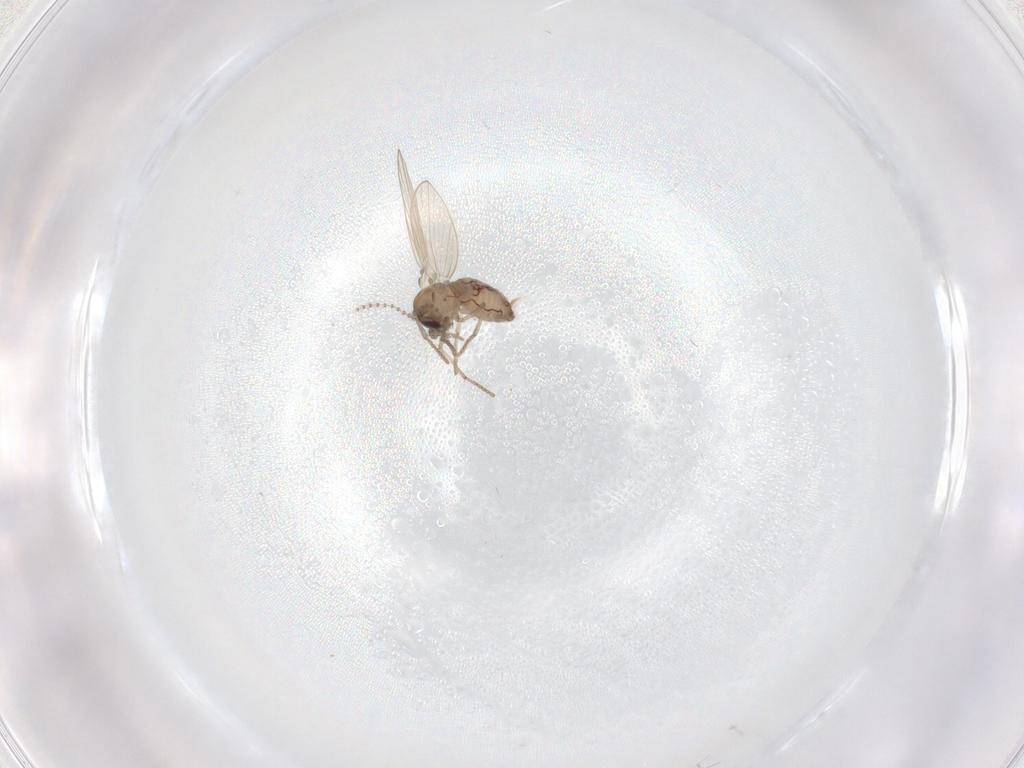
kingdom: Animalia
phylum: Arthropoda
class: Insecta
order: Diptera
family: Psychodidae
